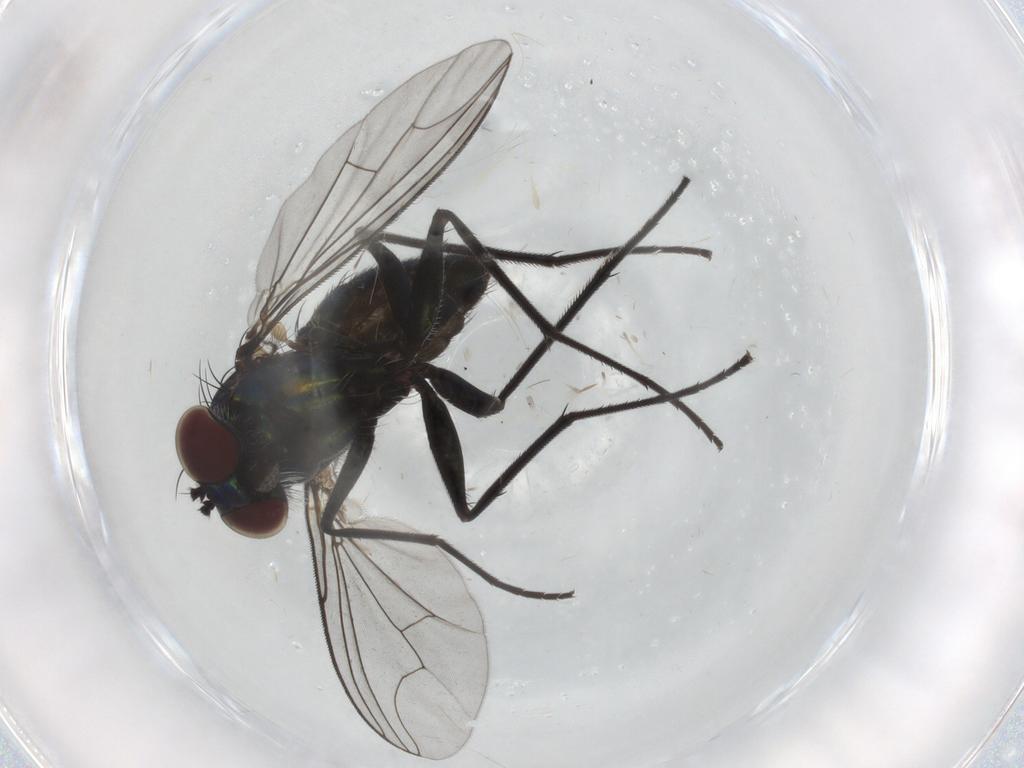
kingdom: Animalia
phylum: Arthropoda
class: Insecta
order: Diptera
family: Dolichopodidae
